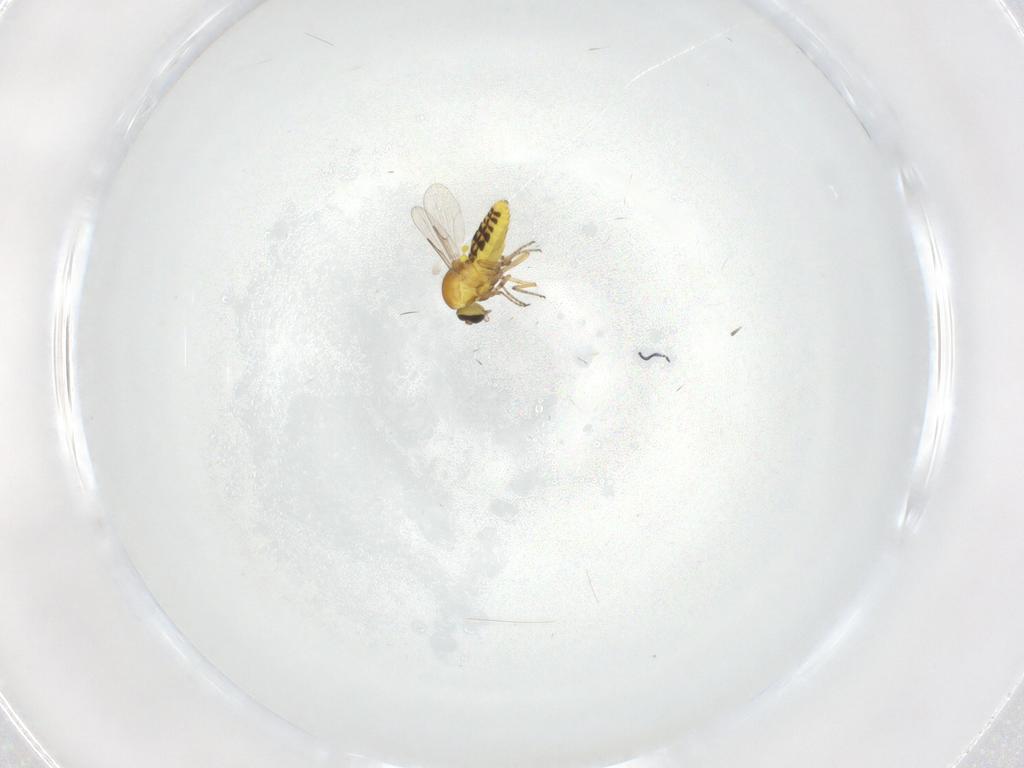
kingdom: Animalia
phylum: Arthropoda
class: Insecta
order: Diptera
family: Ceratopogonidae
